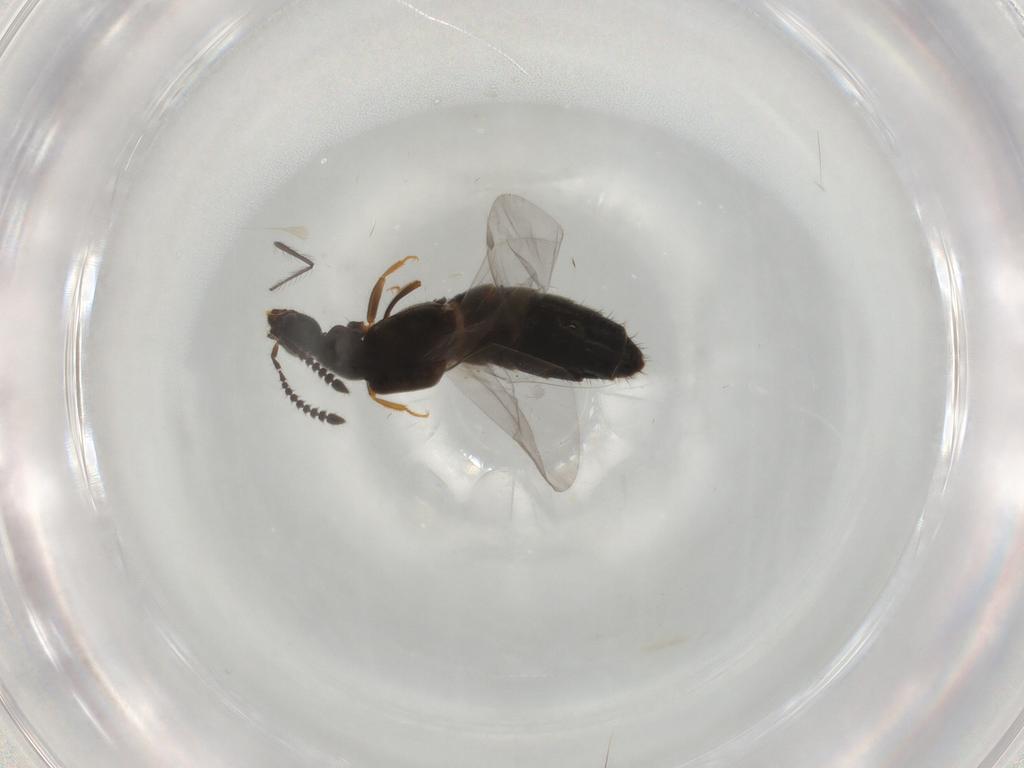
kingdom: Animalia
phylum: Arthropoda
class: Insecta
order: Coleoptera
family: Staphylinidae
